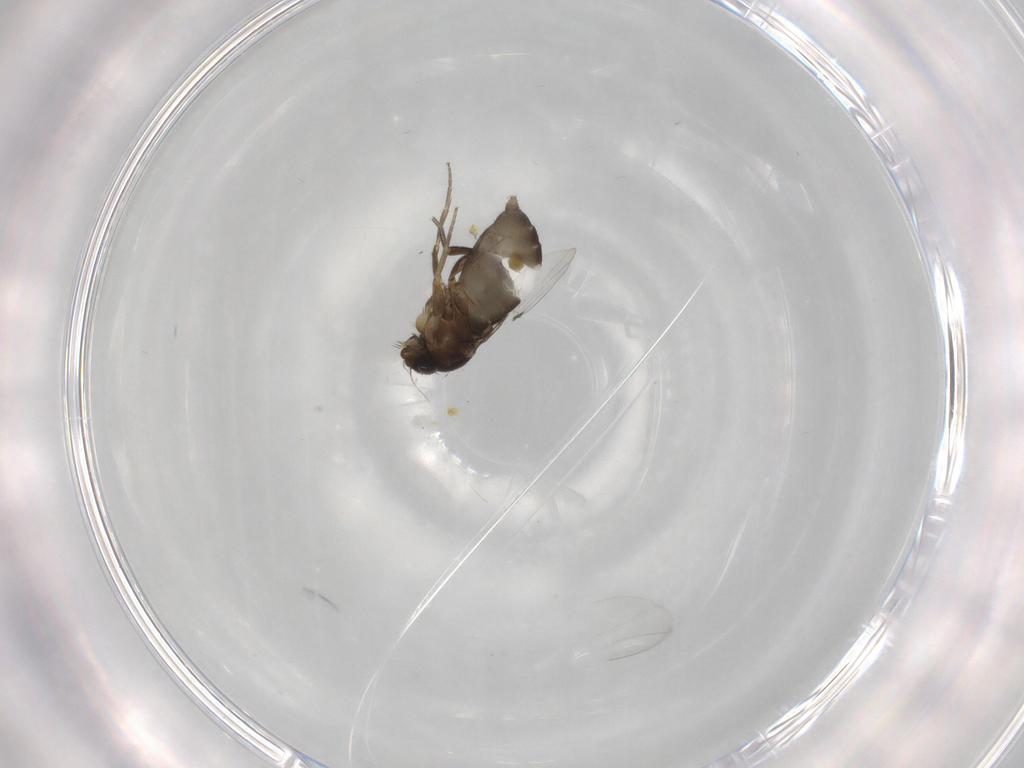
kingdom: Animalia
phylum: Arthropoda
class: Insecta
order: Diptera
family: Phoridae
